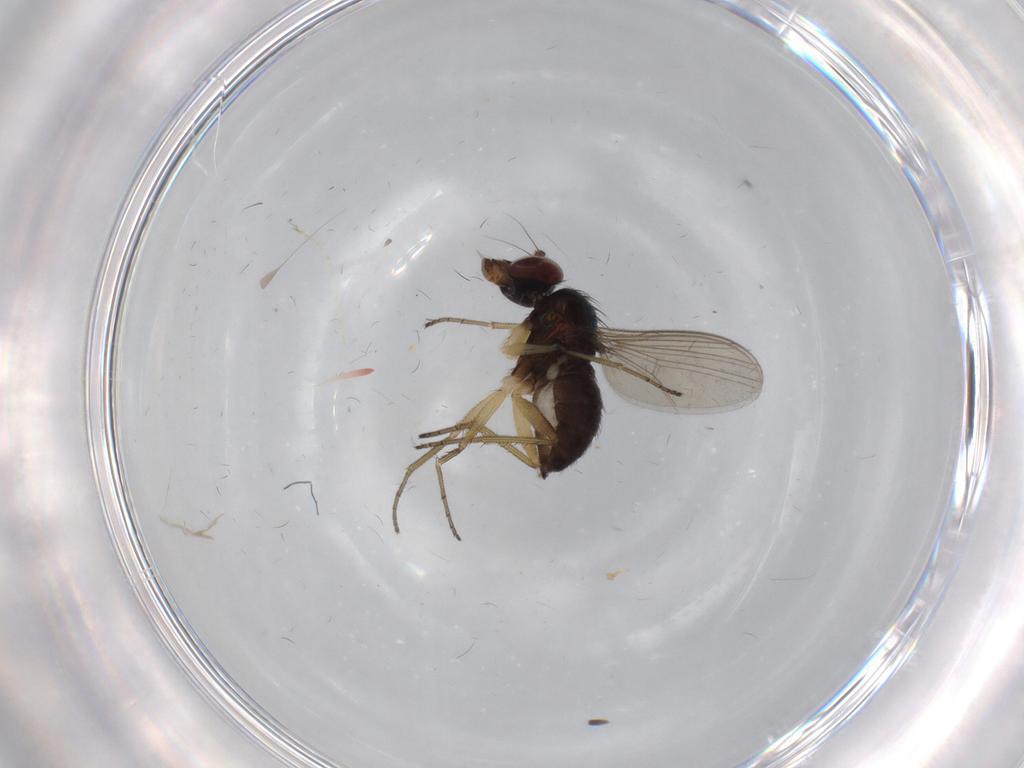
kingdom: Animalia
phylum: Arthropoda
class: Insecta
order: Diptera
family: Dolichopodidae
